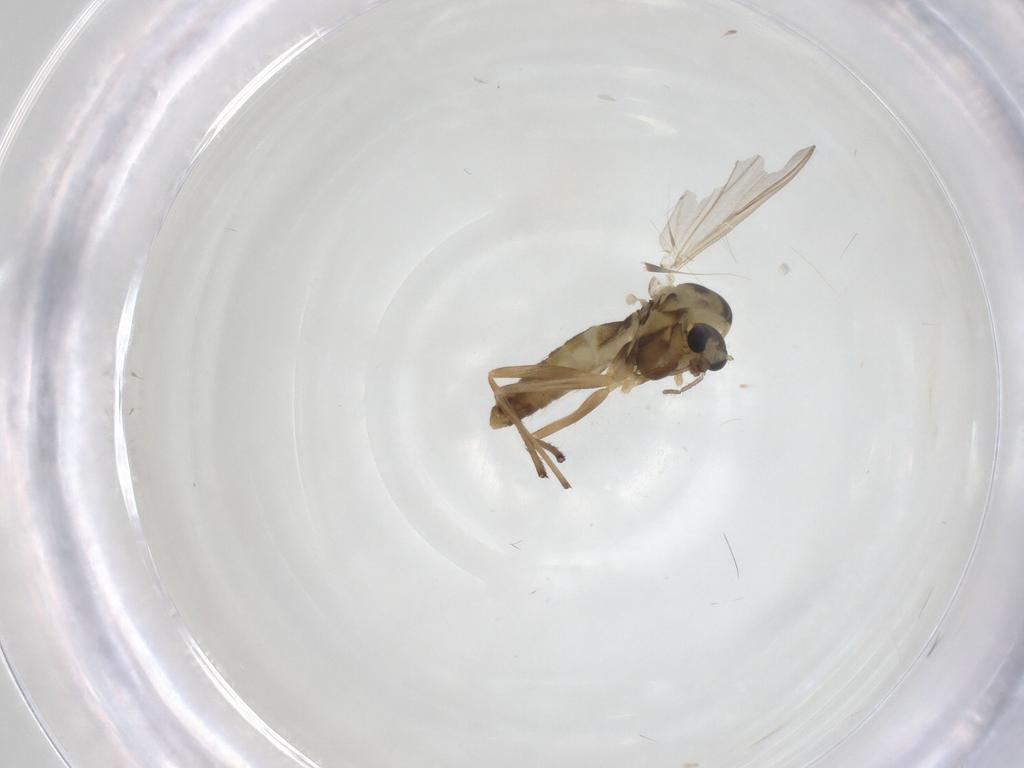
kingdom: Animalia
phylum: Arthropoda
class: Insecta
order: Diptera
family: Chironomidae
